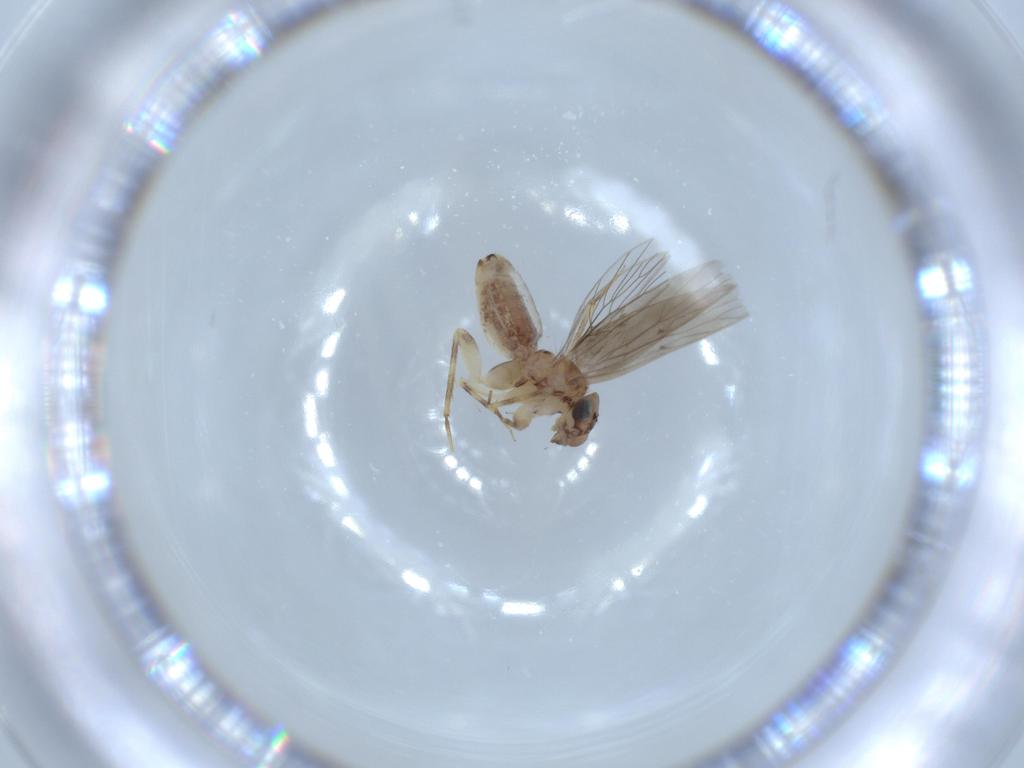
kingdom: Animalia
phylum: Arthropoda
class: Insecta
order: Psocodea
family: Lepidopsocidae
